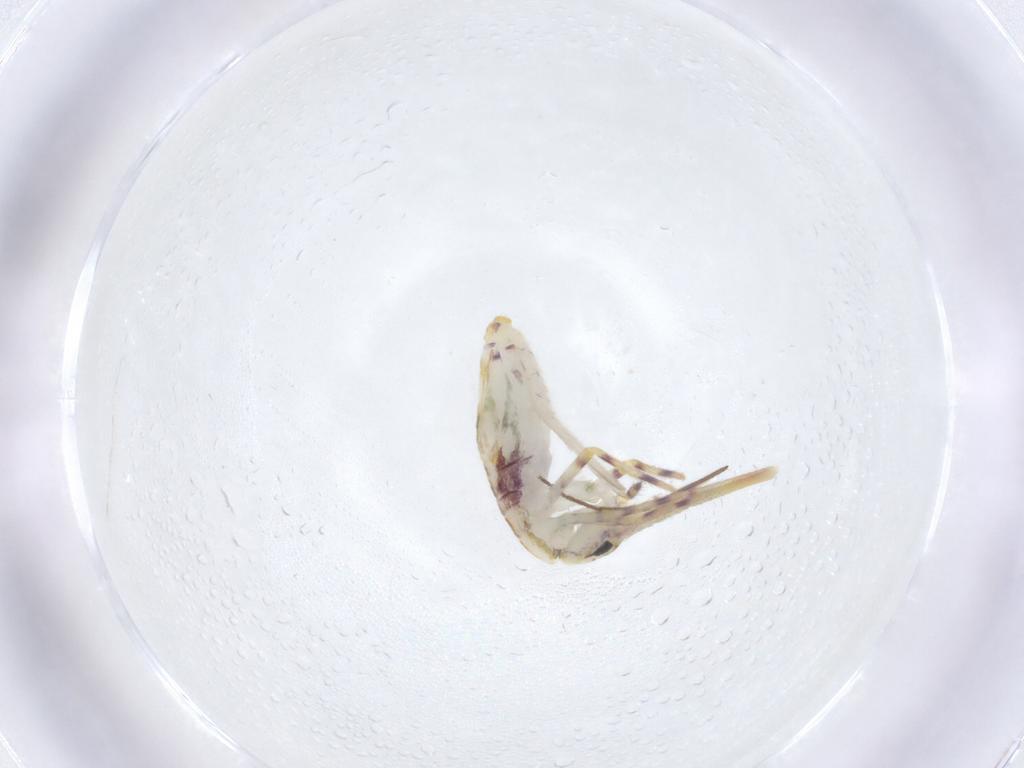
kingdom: Animalia
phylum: Arthropoda
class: Collembola
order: Entomobryomorpha
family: Entomobryidae
